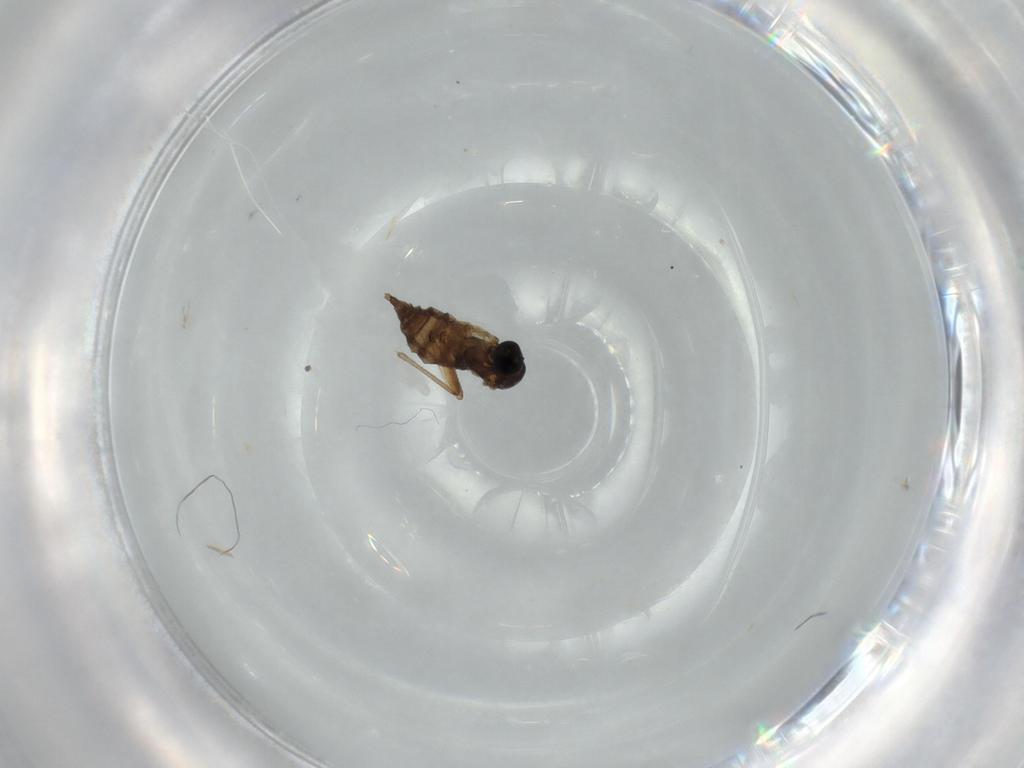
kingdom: Animalia
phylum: Arthropoda
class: Insecta
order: Diptera
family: Sciaridae
